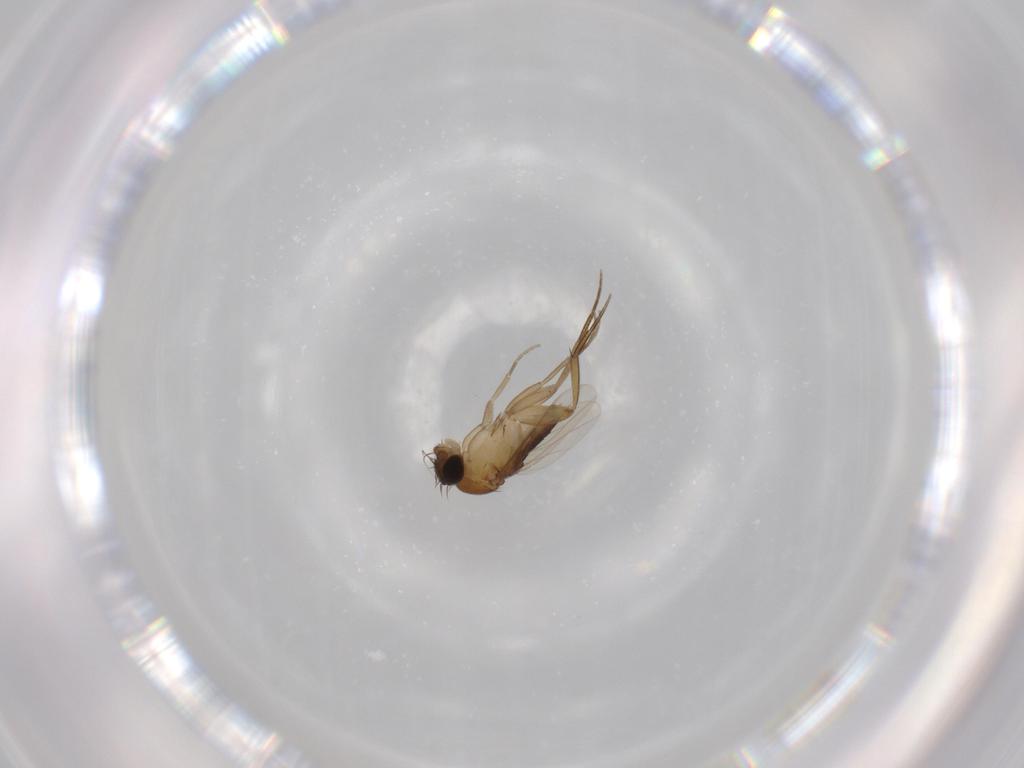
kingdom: Animalia
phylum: Arthropoda
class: Insecta
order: Diptera
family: Phoridae
